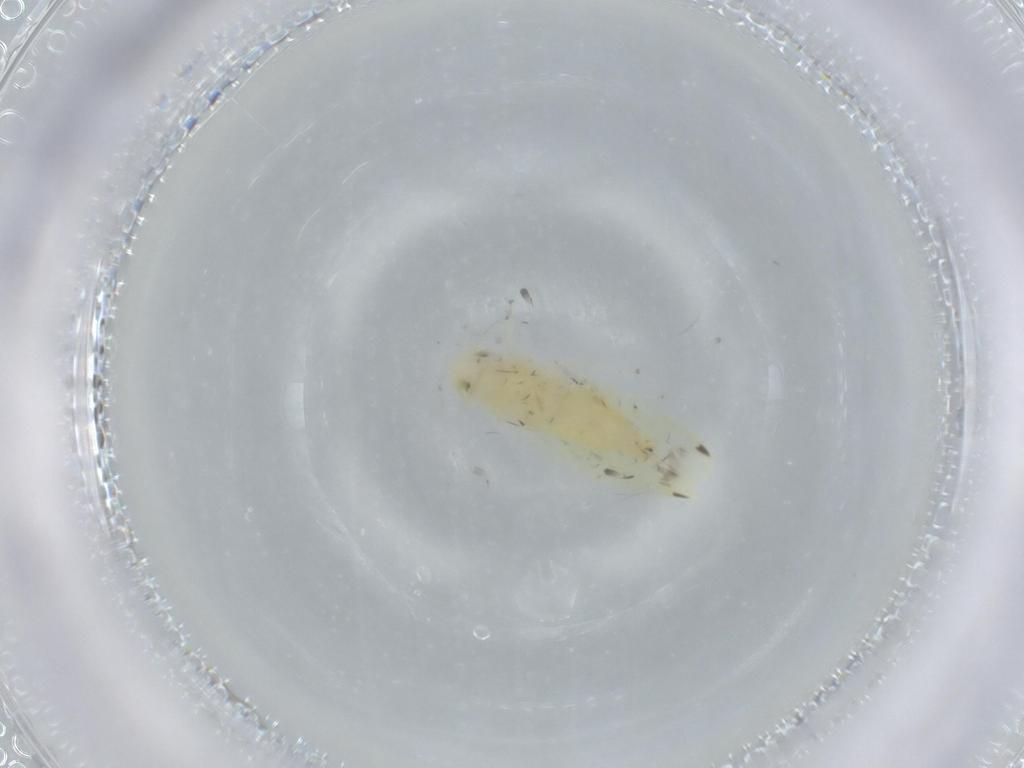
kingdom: Animalia
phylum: Arthropoda
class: Insecta
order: Hemiptera
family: Cicadellidae
